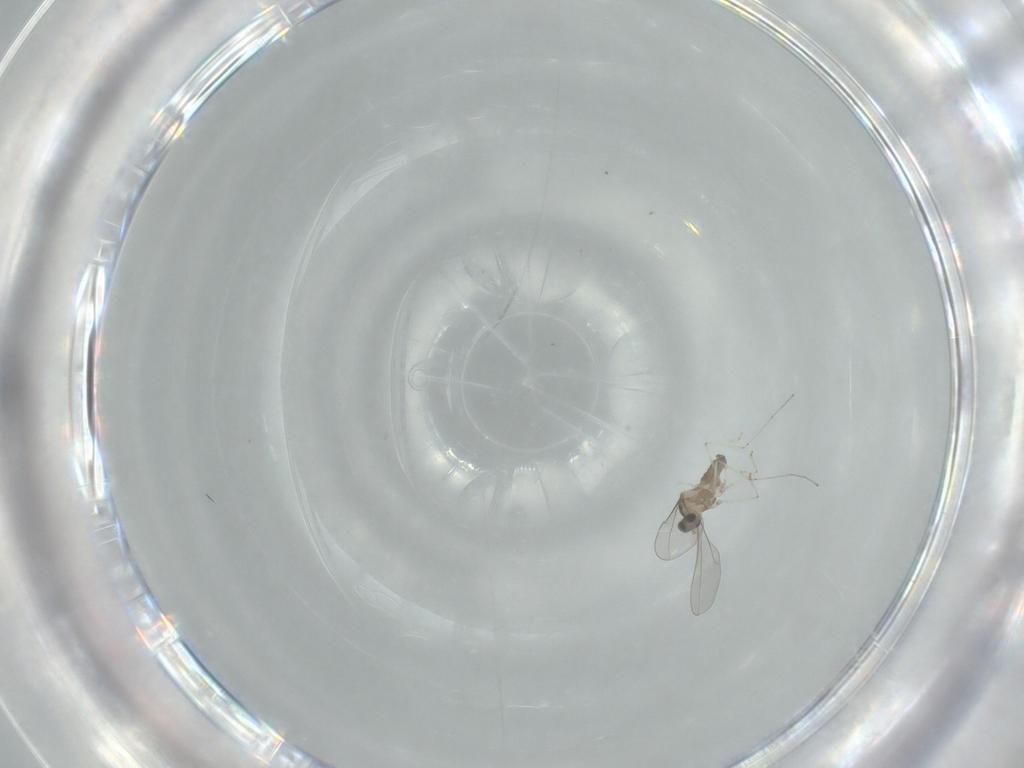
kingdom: Animalia
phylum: Arthropoda
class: Insecta
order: Diptera
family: Cecidomyiidae
